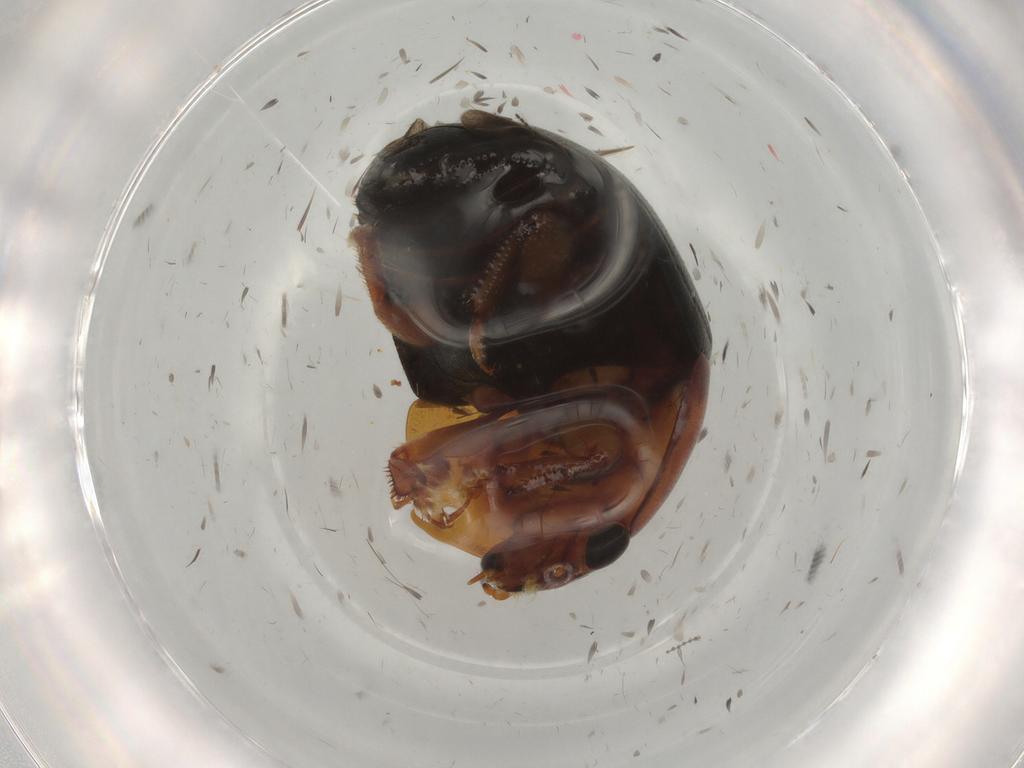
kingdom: Animalia
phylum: Arthropoda
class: Insecta
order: Coleoptera
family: Nitidulidae
